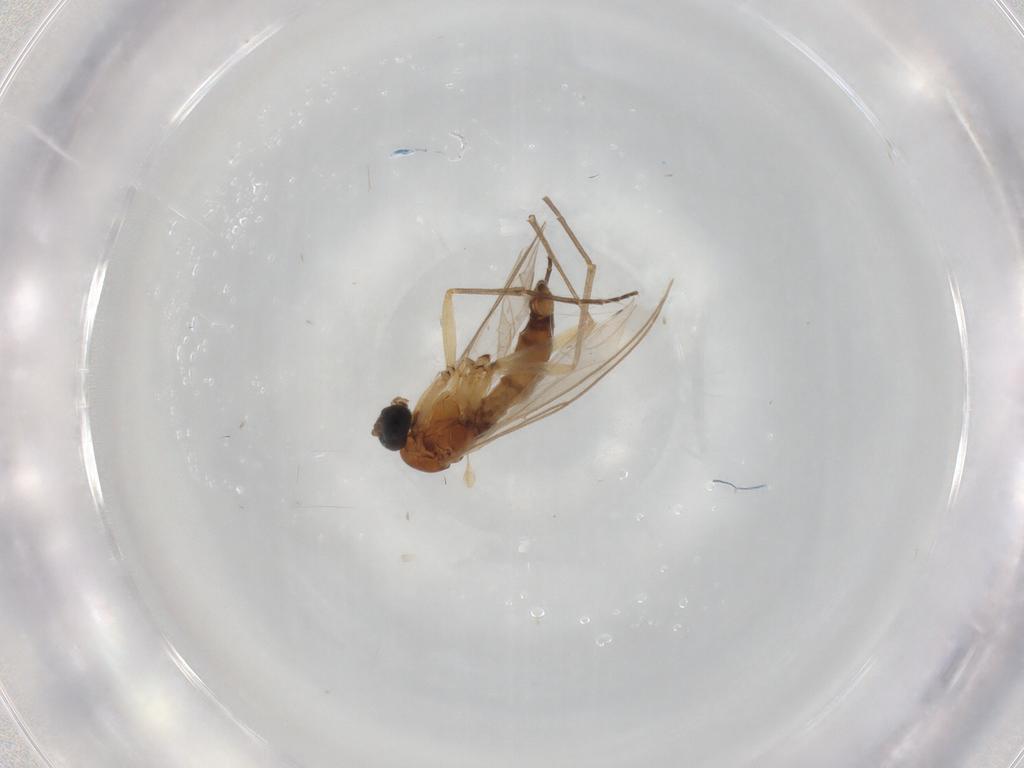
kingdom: Animalia
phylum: Arthropoda
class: Insecta
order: Diptera
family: Sciaridae
